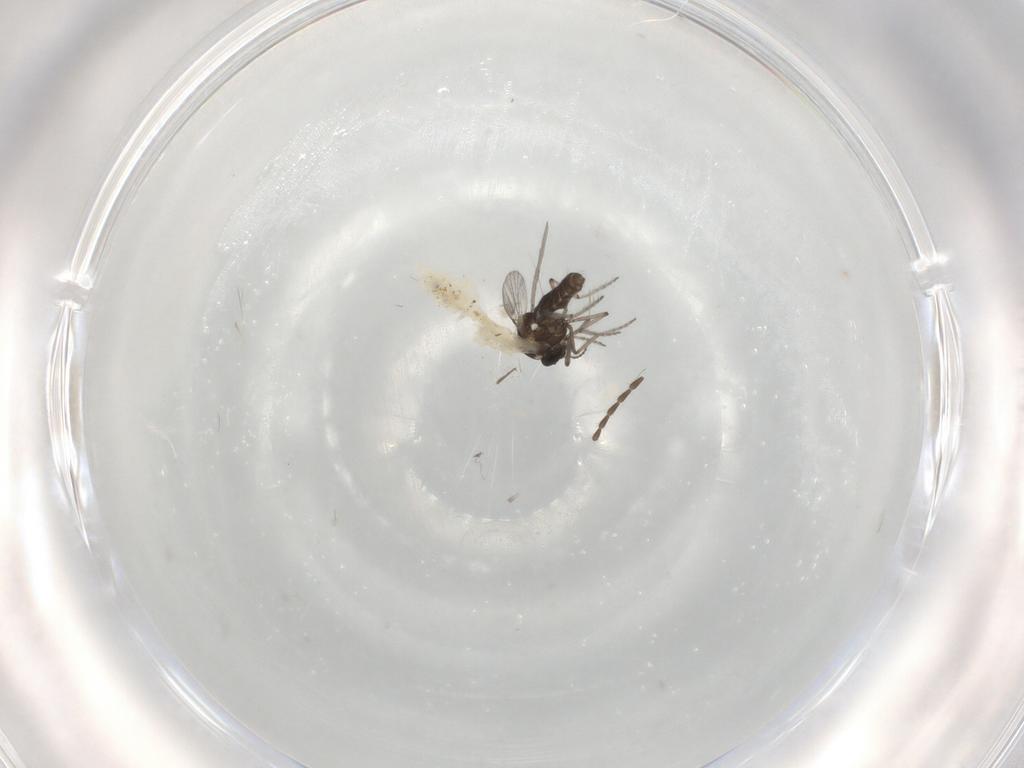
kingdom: Animalia
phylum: Arthropoda
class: Insecta
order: Diptera
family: Ceratopogonidae
